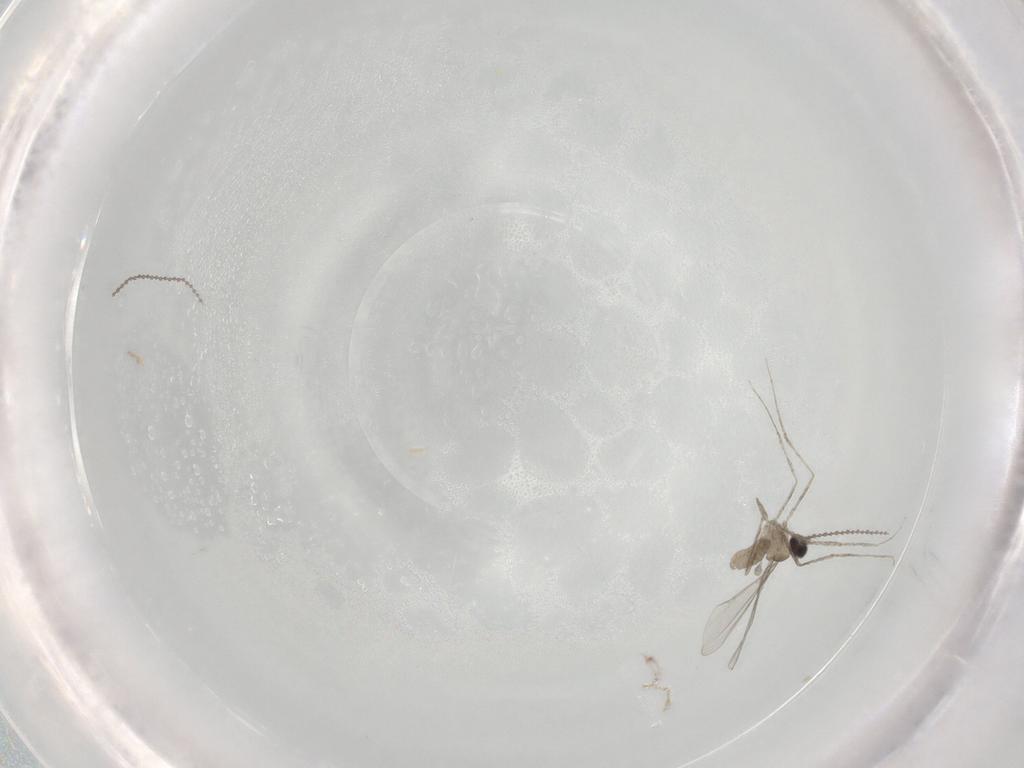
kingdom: Animalia
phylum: Arthropoda
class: Insecta
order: Diptera
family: Cecidomyiidae
